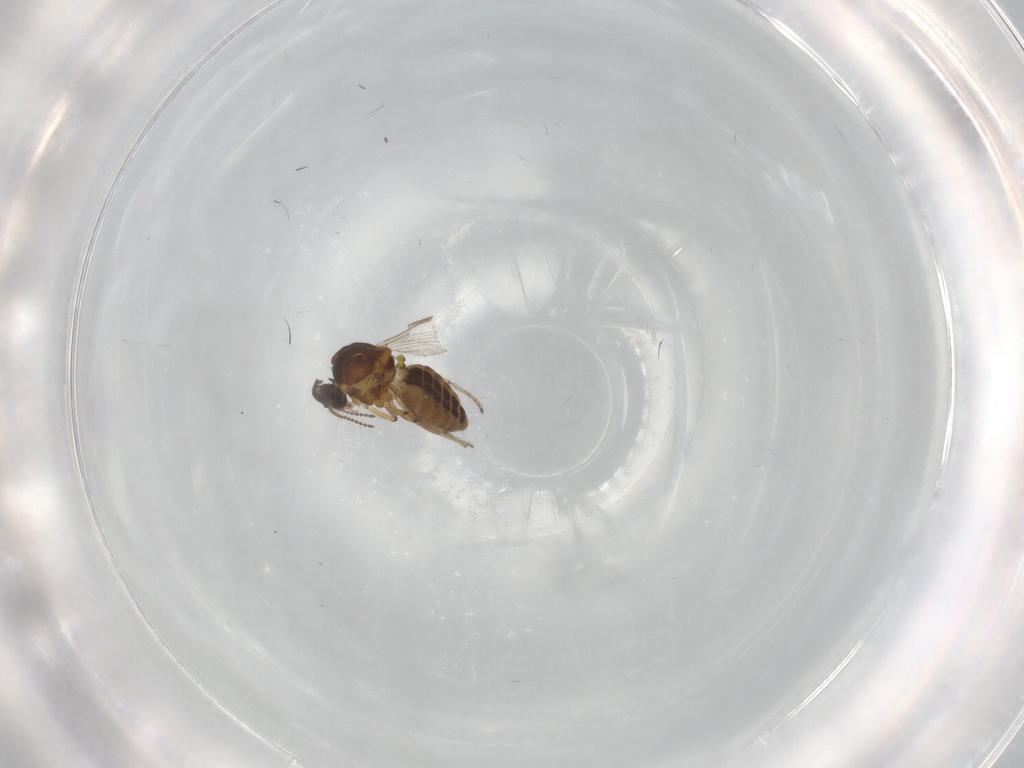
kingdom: Animalia
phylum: Arthropoda
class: Insecta
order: Diptera
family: Ceratopogonidae
